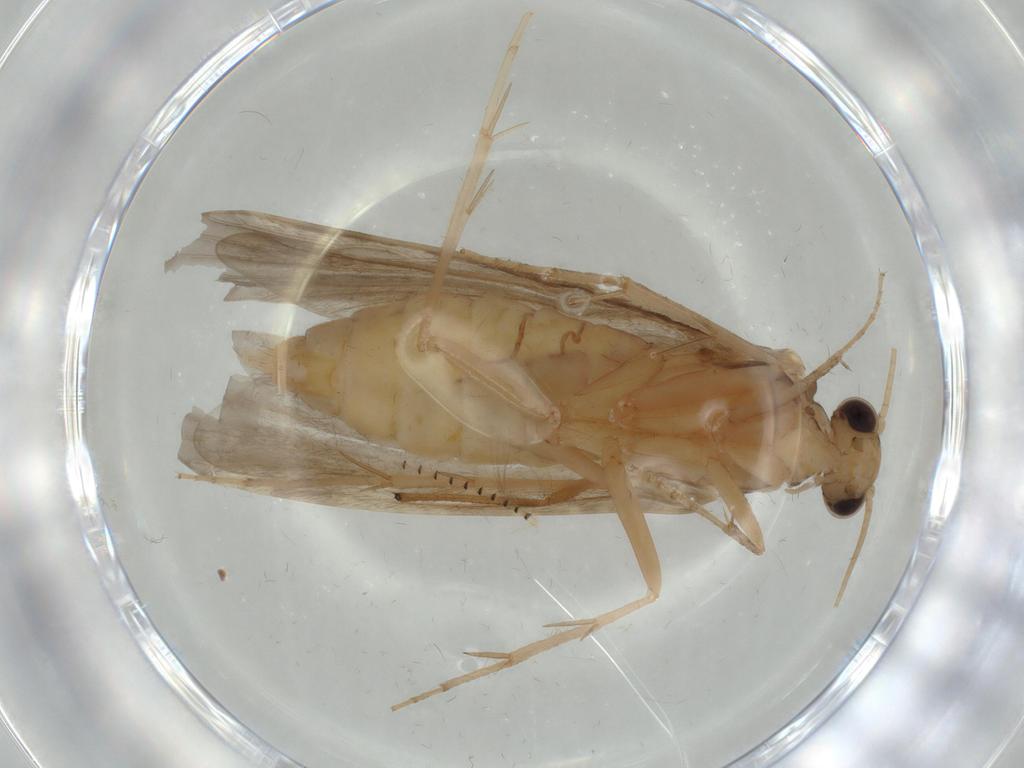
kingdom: Animalia
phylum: Arthropoda
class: Insecta
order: Trichoptera
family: Ecnomidae
